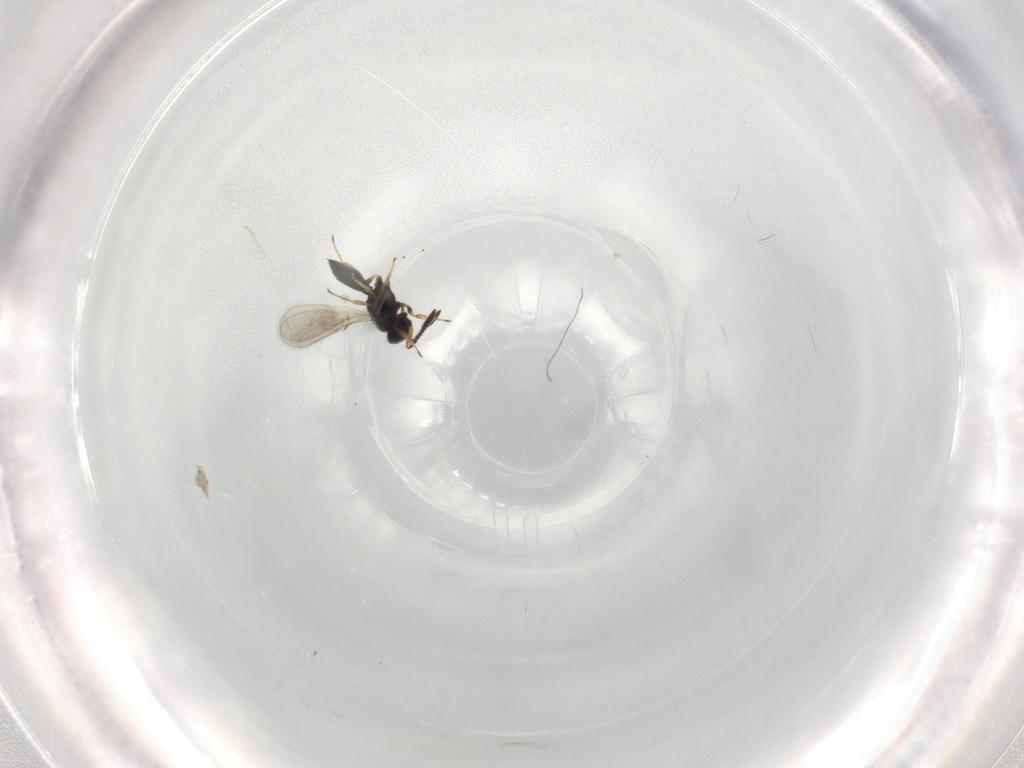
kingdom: Animalia
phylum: Arthropoda
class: Insecta
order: Hymenoptera
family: Scelionidae
